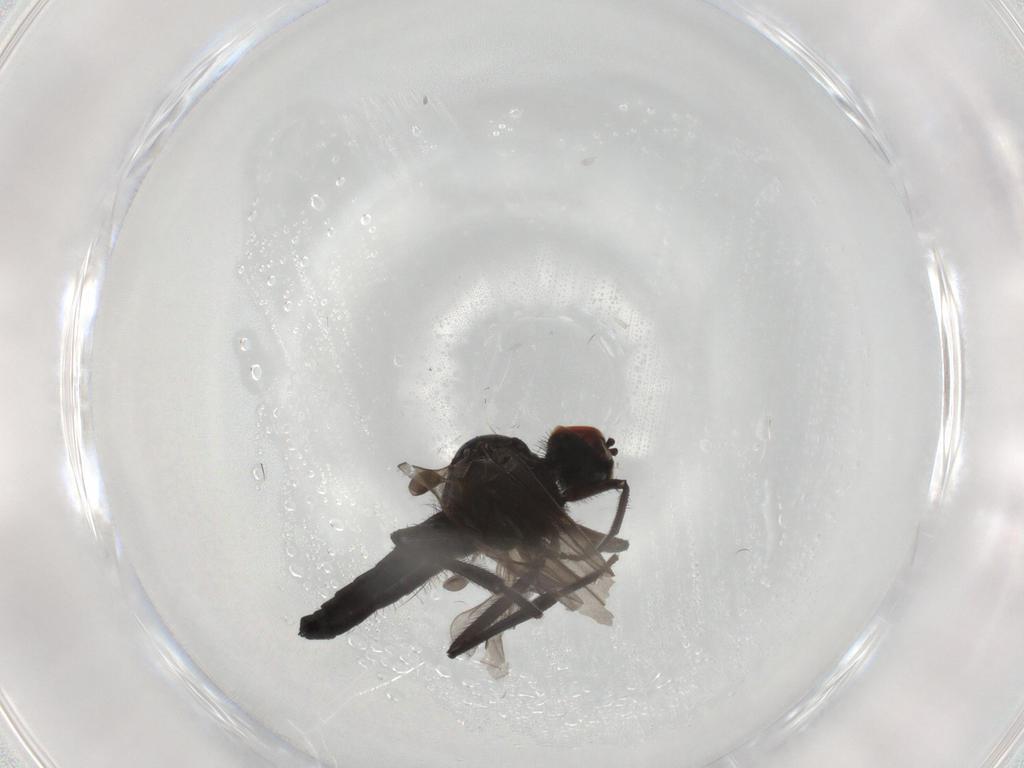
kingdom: Animalia
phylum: Arthropoda
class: Insecta
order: Diptera
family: Hybotidae
